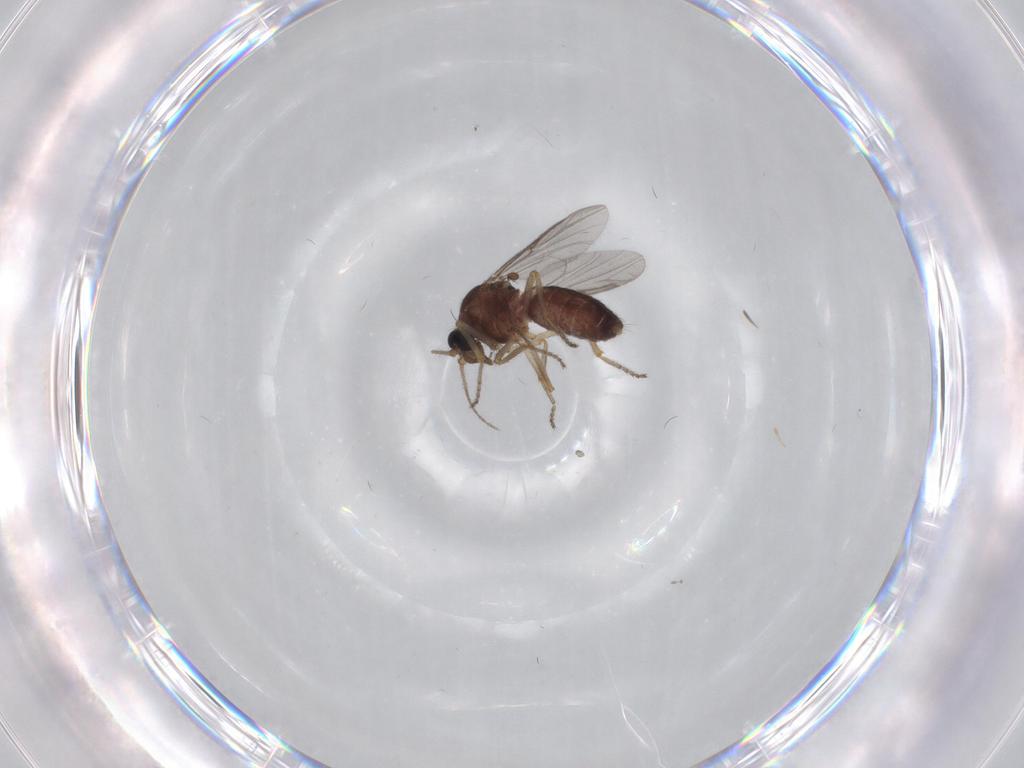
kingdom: Animalia
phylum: Arthropoda
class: Insecta
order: Diptera
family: Ceratopogonidae
